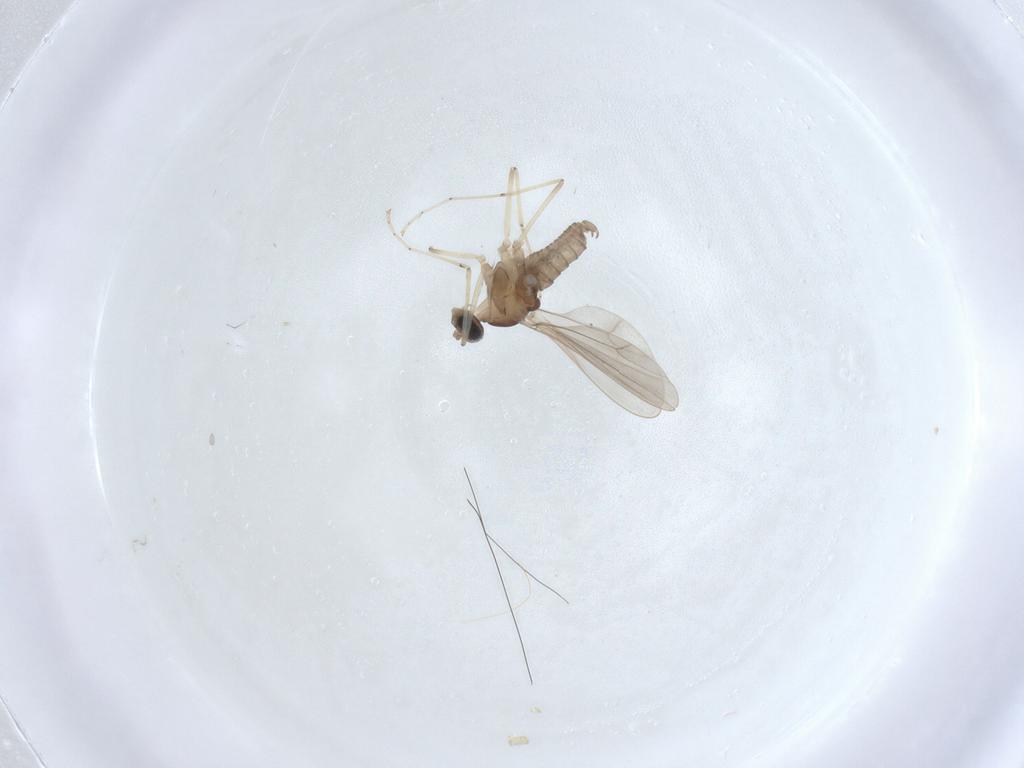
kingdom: Animalia
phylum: Arthropoda
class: Insecta
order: Diptera
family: Cecidomyiidae
